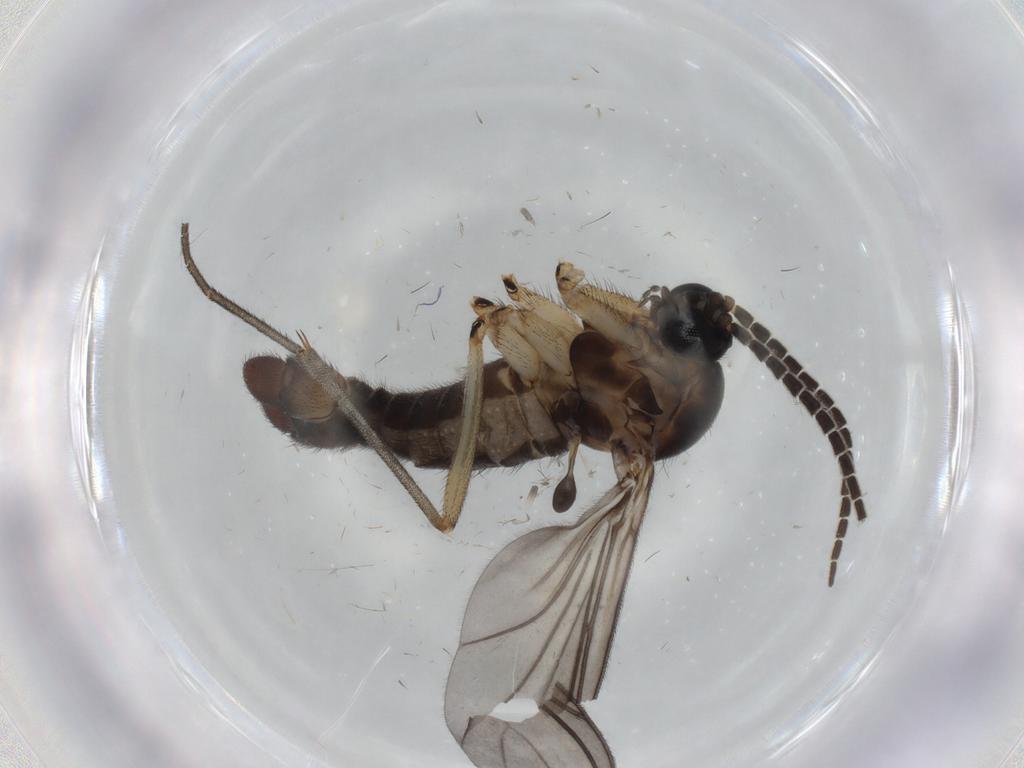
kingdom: Animalia
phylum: Arthropoda
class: Insecta
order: Diptera
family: Cecidomyiidae
